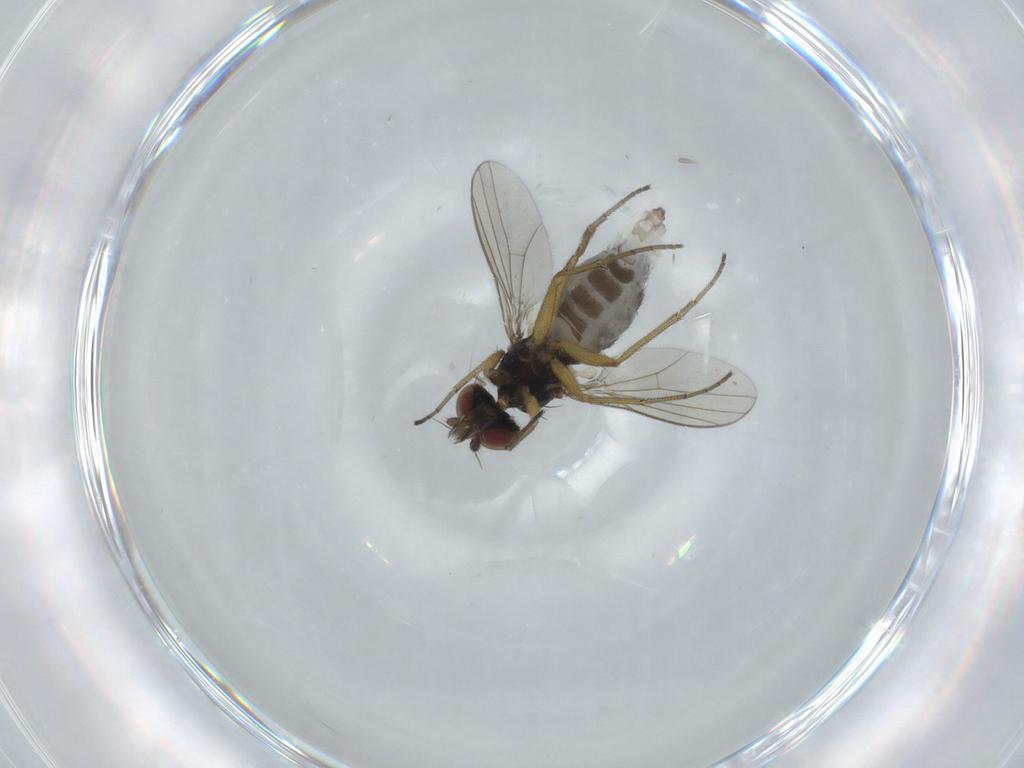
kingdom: Animalia
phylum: Arthropoda
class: Insecta
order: Diptera
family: Dolichopodidae
